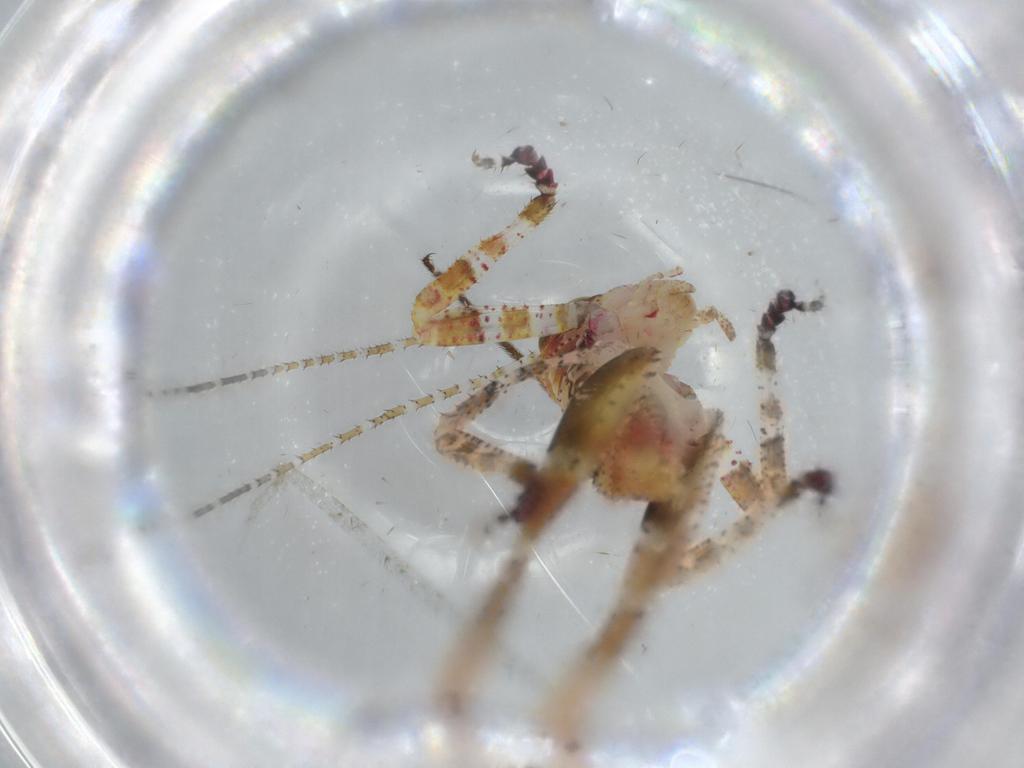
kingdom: Animalia
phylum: Arthropoda
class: Insecta
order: Orthoptera
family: Tettigoniidae
